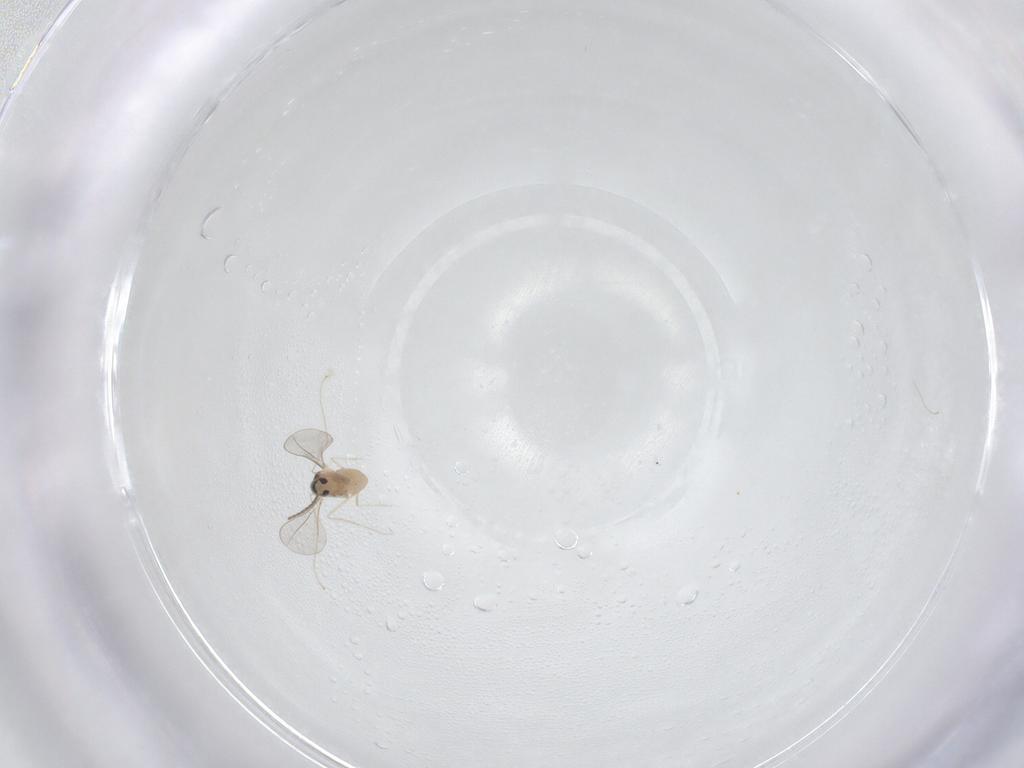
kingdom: Animalia
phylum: Arthropoda
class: Insecta
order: Diptera
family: Cecidomyiidae
